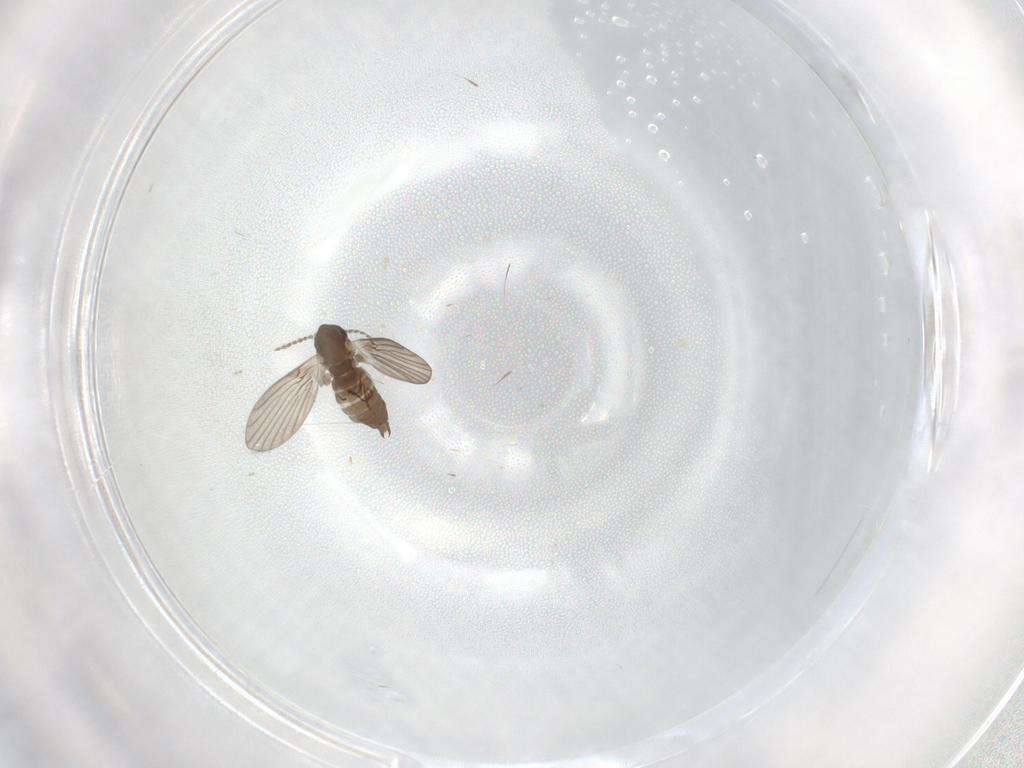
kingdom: Animalia
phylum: Arthropoda
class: Insecta
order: Diptera
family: Psychodidae
